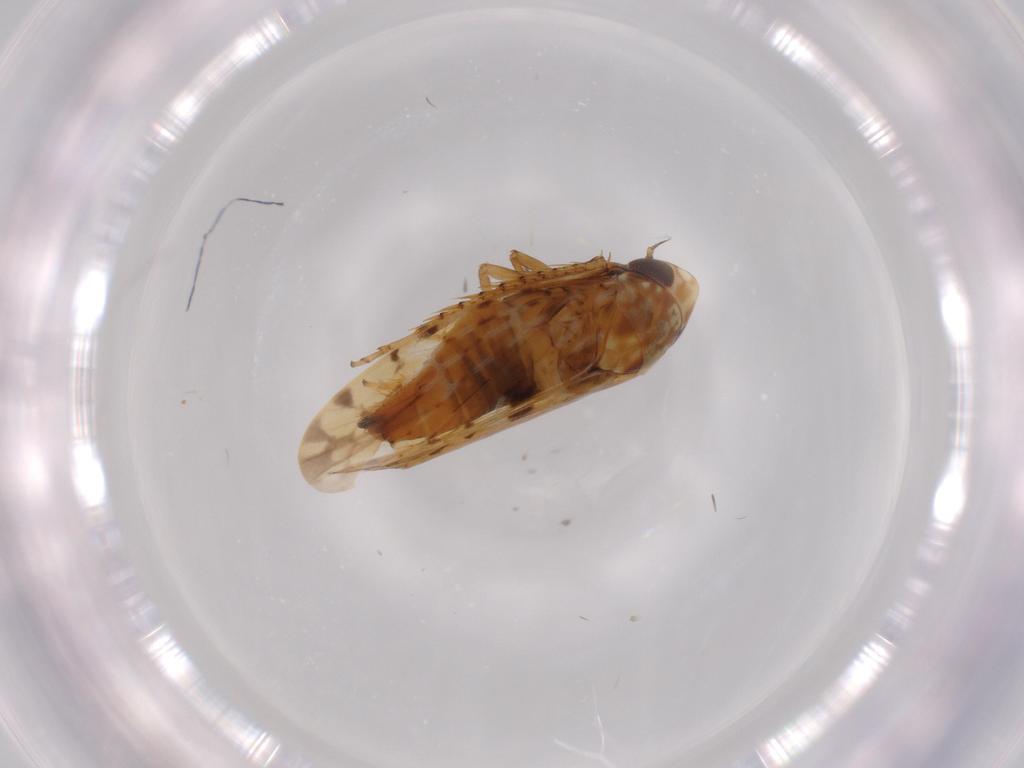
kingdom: Animalia
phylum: Arthropoda
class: Insecta
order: Hemiptera
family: Cicadellidae
